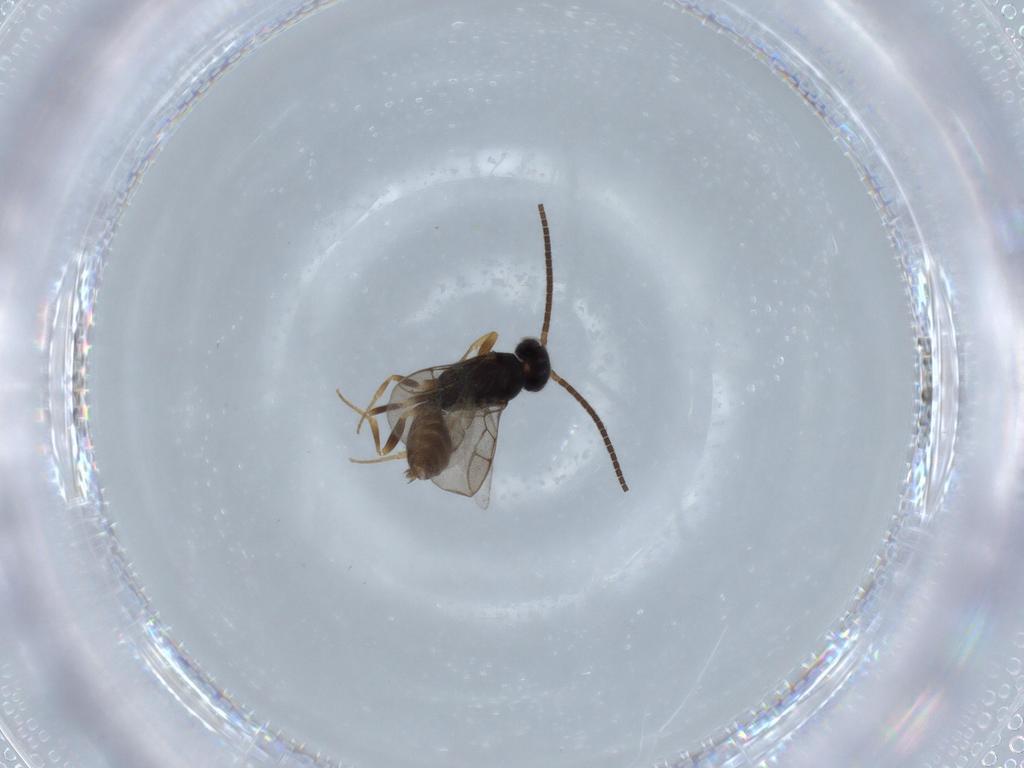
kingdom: Animalia
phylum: Arthropoda
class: Insecta
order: Hymenoptera
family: Sclerogibbidae
